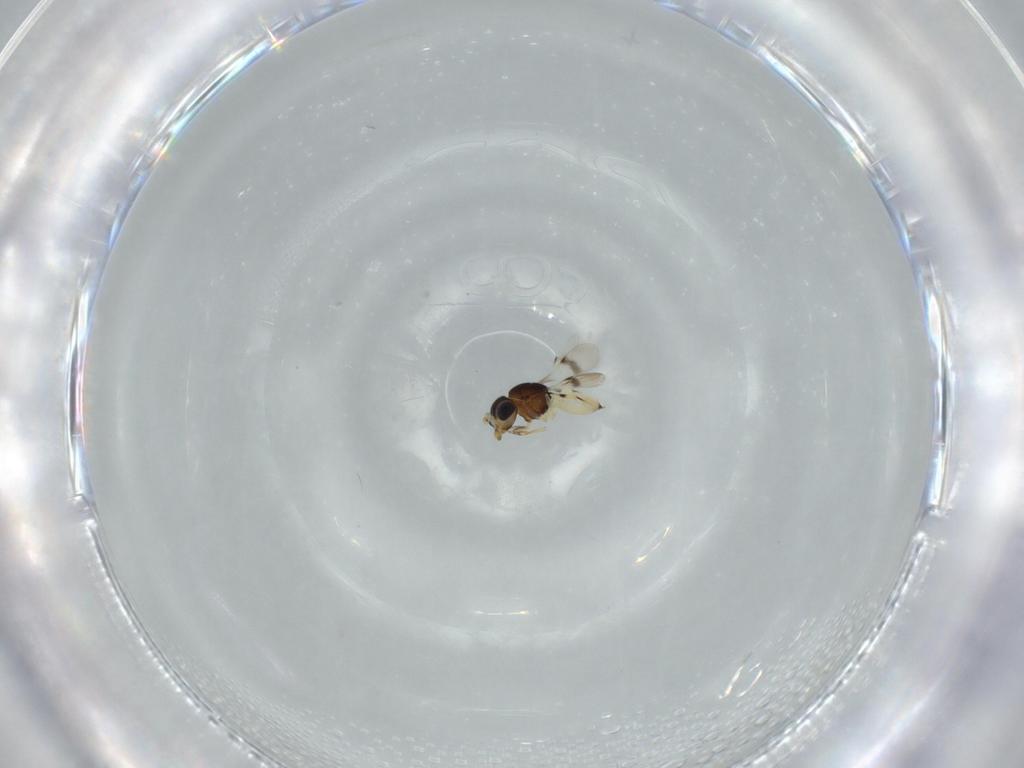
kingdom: Animalia
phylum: Arthropoda
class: Insecta
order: Hymenoptera
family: Scelionidae
